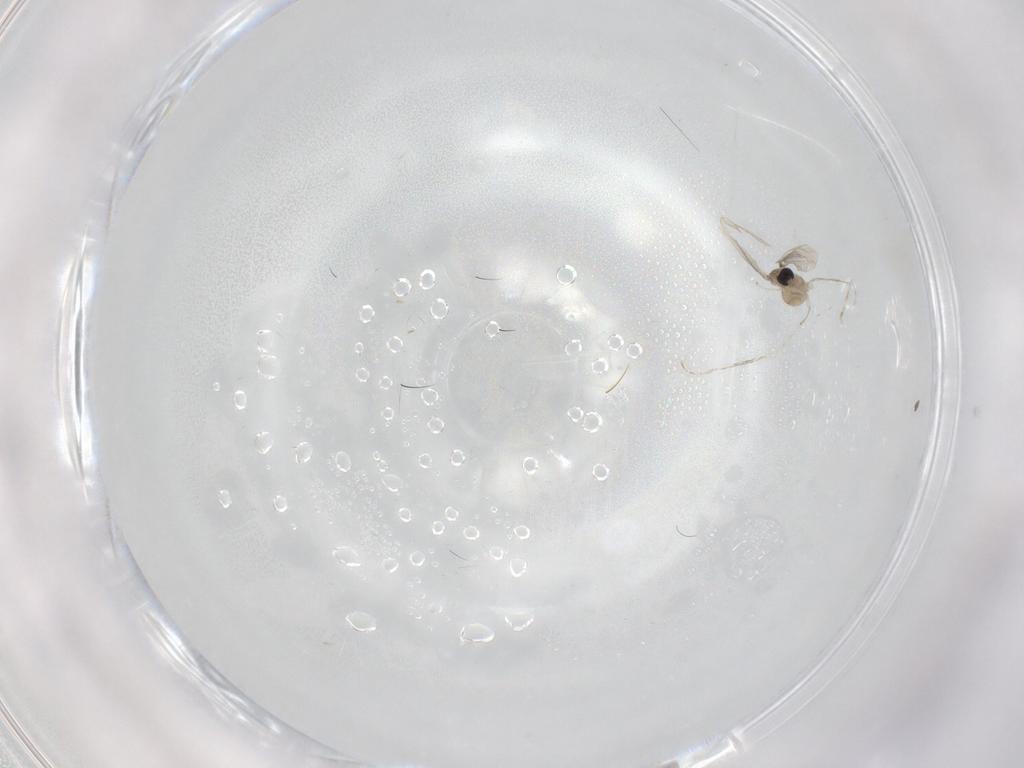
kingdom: Animalia
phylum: Arthropoda
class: Insecta
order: Diptera
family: Cecidomyiidae
